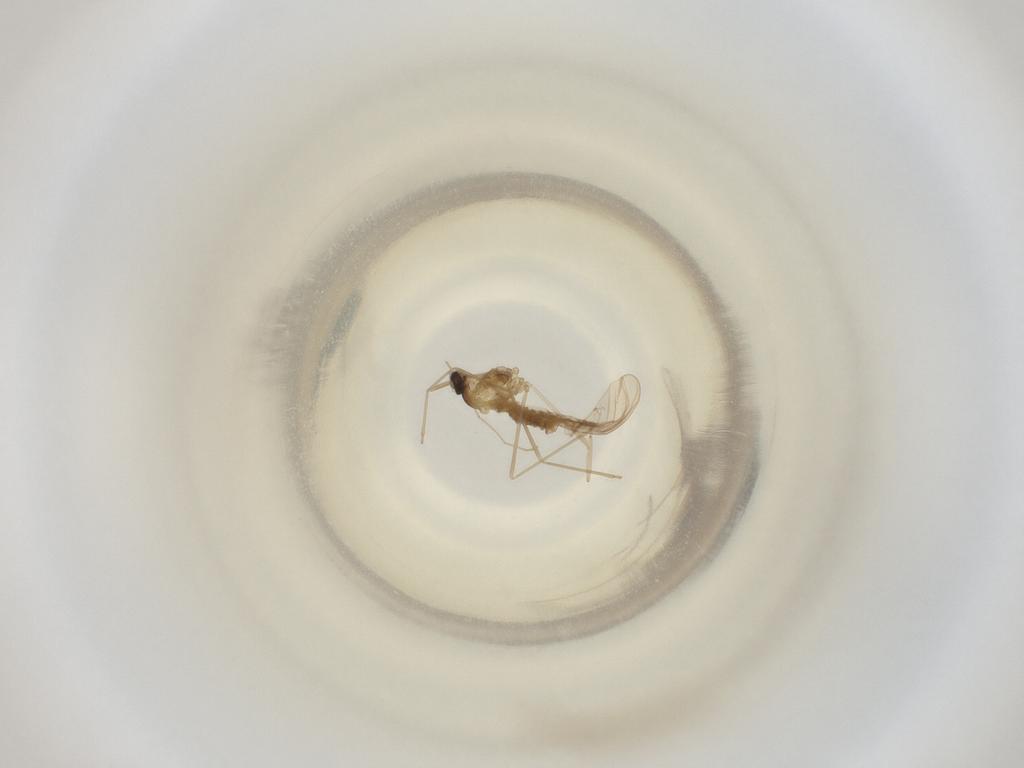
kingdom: Animalia
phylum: Arthropoda
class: Insecta
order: Diptera
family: Cecidomyiidae
